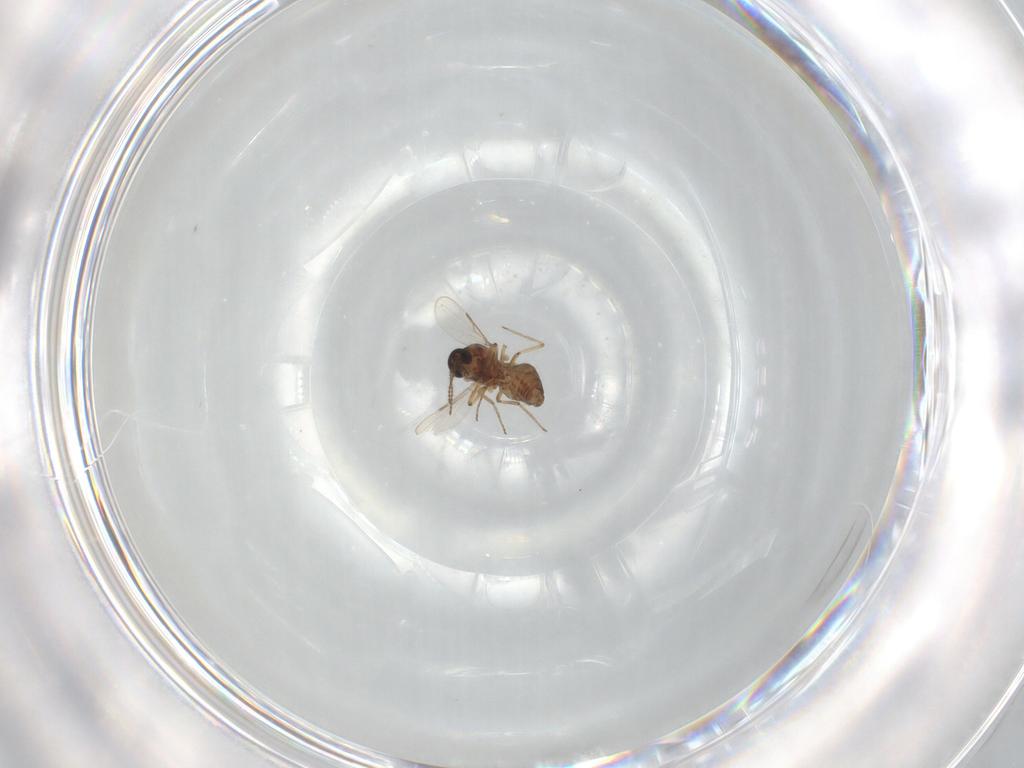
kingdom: Animalia
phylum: Arthropoda
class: Insecta
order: Diptera
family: Ceratopogonidae
